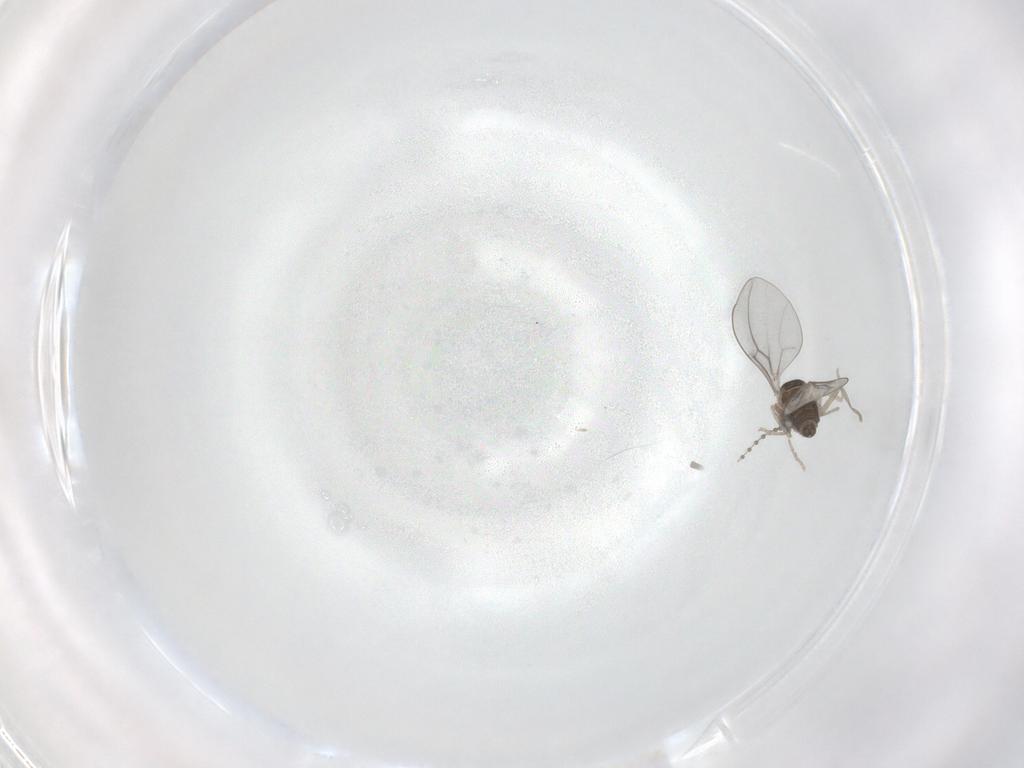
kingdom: Animalia
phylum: Arthropoda
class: Insecta
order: Diptera
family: Cecidomyiidae
